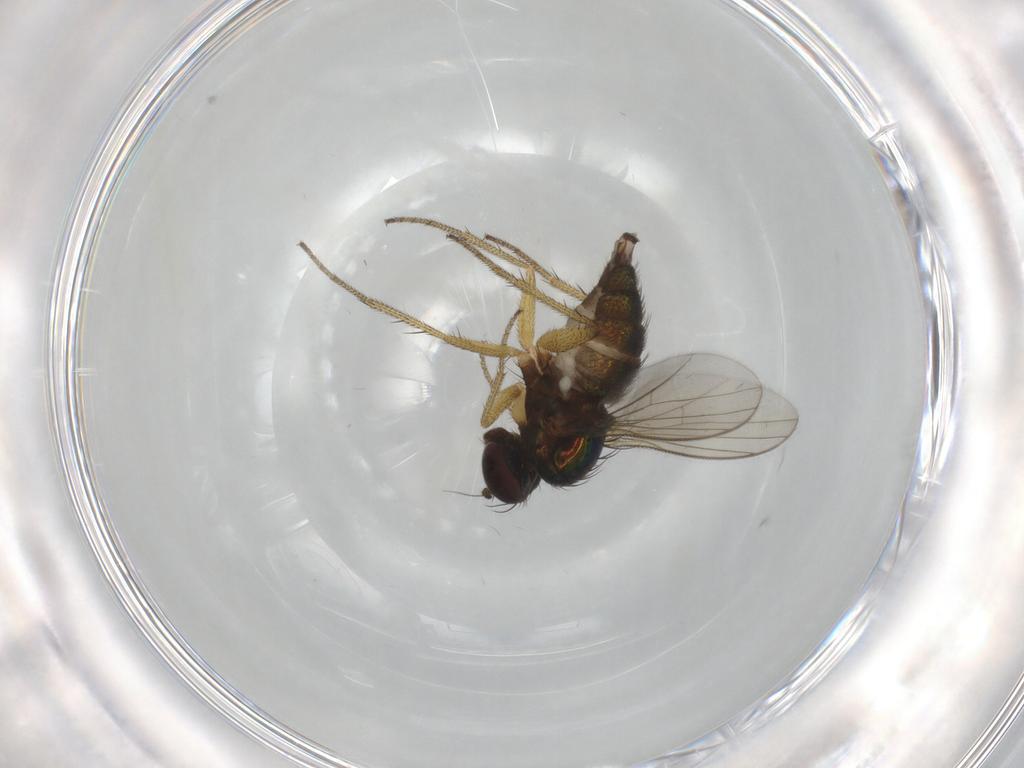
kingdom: Animalia
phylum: Arthropoda
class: Insecta
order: Diptera
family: Dolichopodidae
